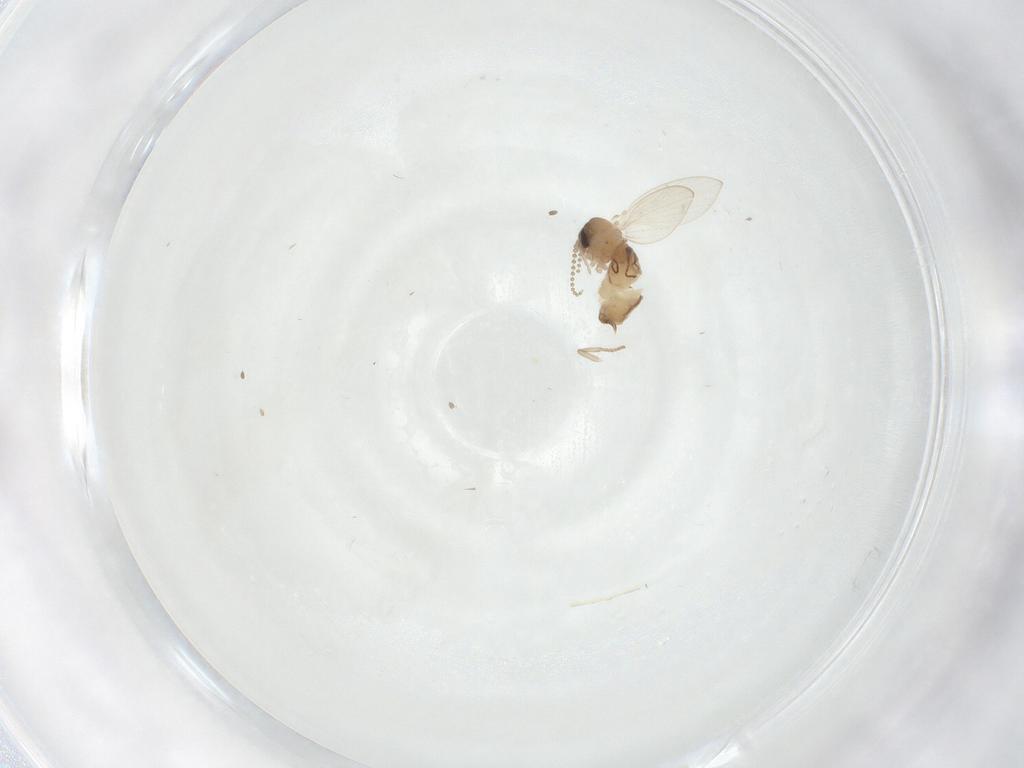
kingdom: Animalia
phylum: Arthropoda
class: Insecta
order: Diptera
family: Psychodidae
